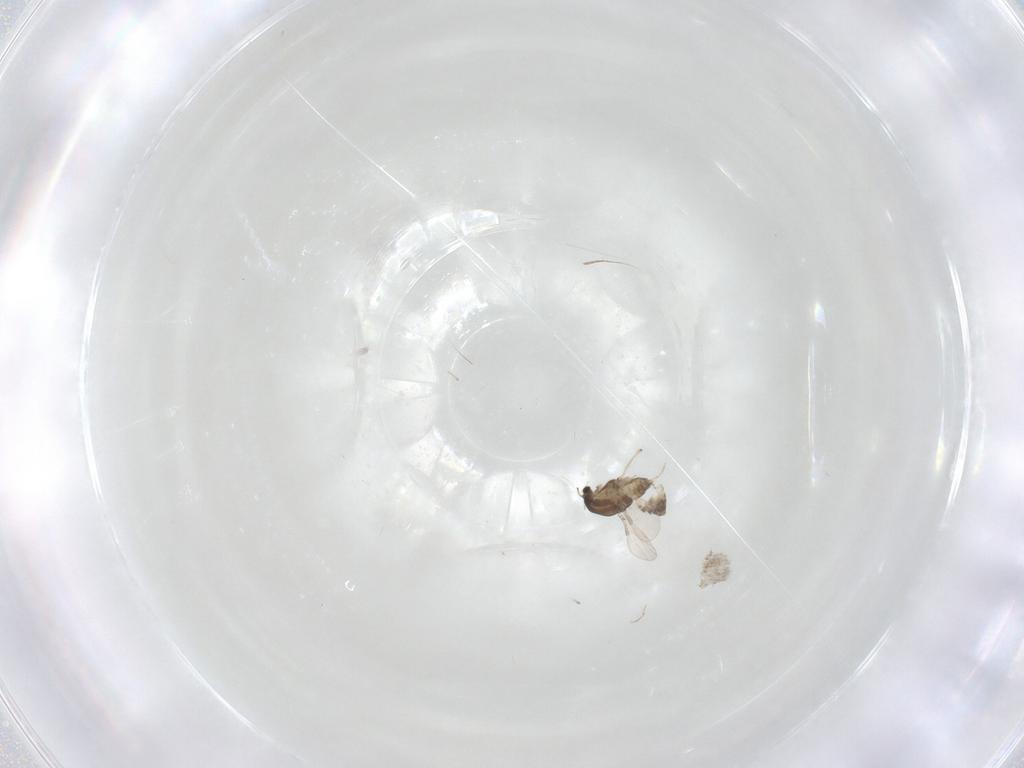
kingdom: Animalia
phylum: Arthropoda
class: Insecta
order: Diptera
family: Chironomidae
